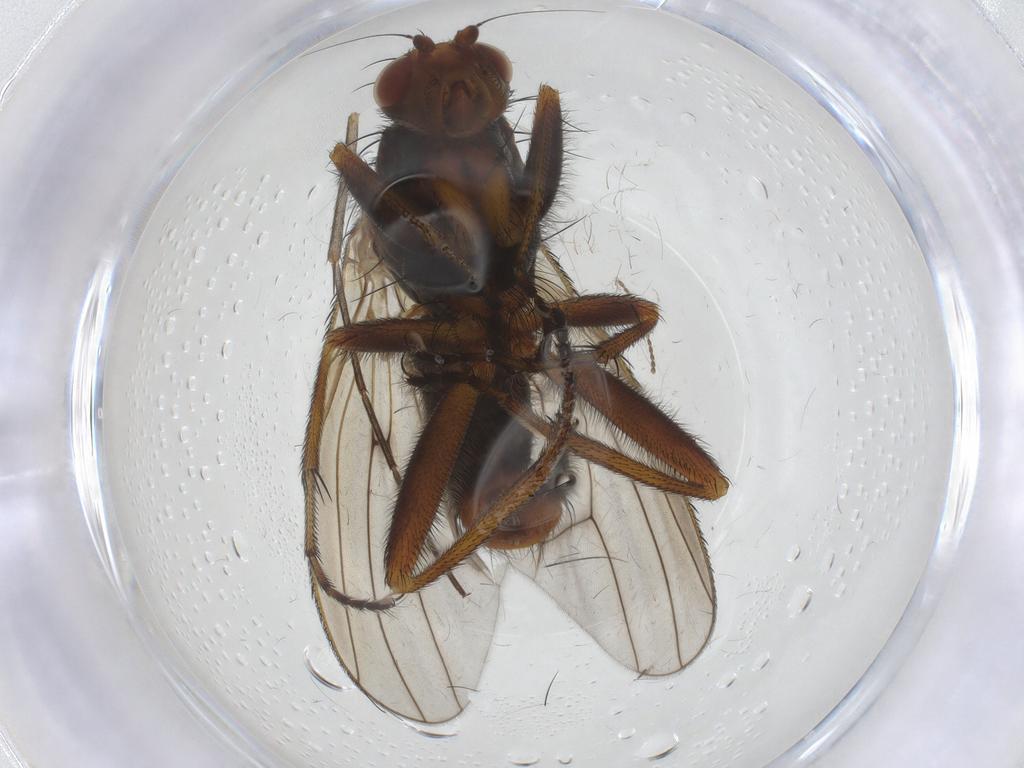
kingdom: Animalia
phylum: Arthropoda
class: Insecta
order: Diptera
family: Heleomyzidae
